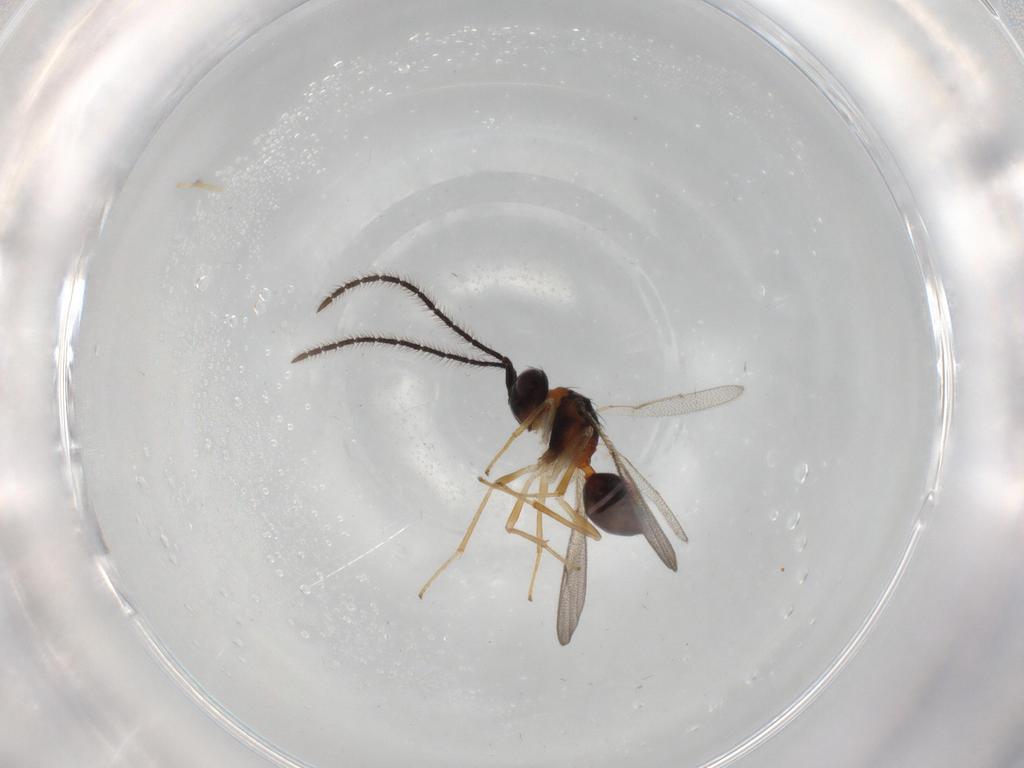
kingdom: Animalia
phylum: Arthropoda
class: Insecta
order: Hymenoptera
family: Diparidae
